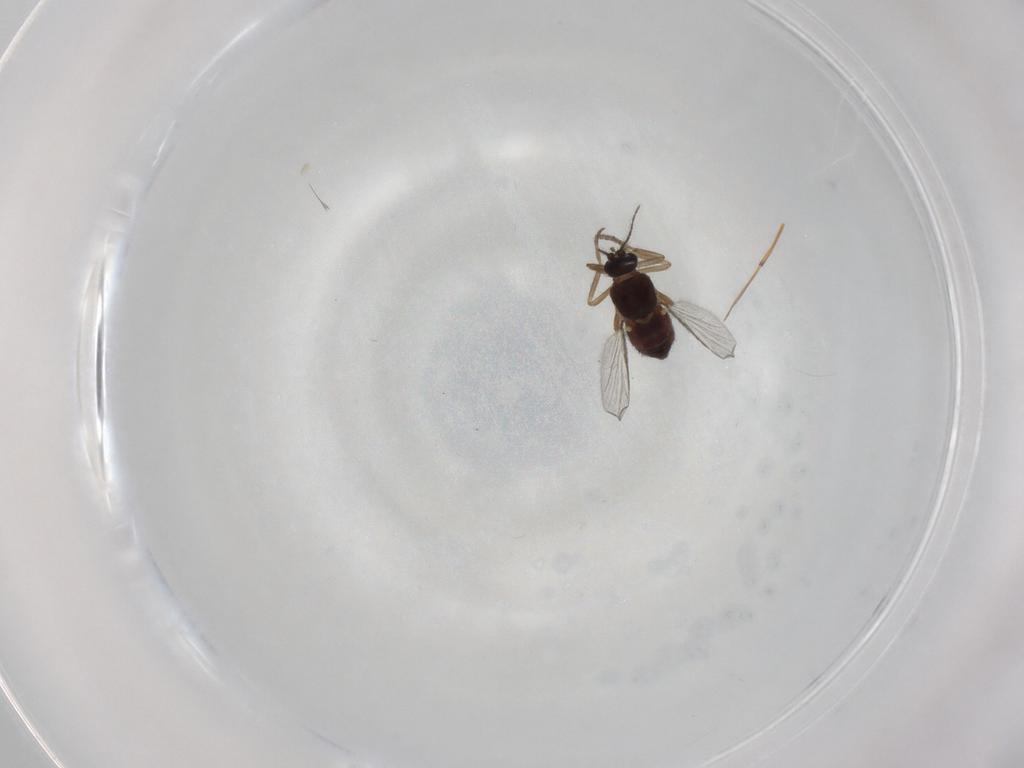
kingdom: Animalia
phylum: Arthropoda
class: Insecta
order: Diptera
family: Ceratopogonidae
